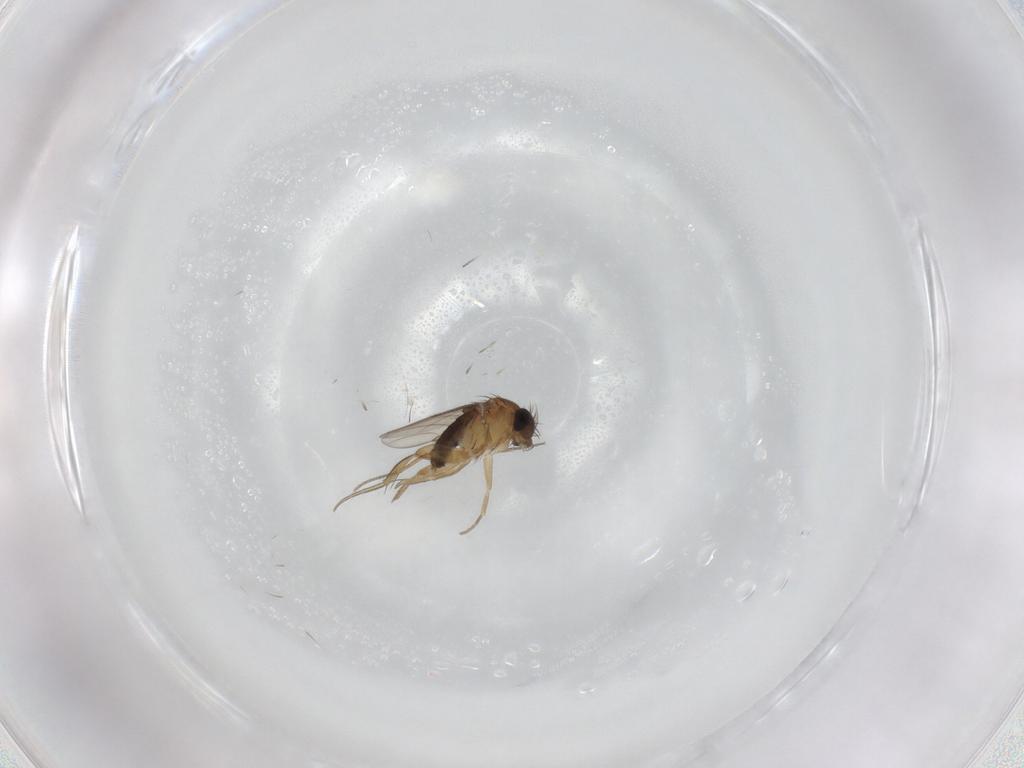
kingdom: Animalia
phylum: Arthropoda
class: Insecta
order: Diptera
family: Phoridae
